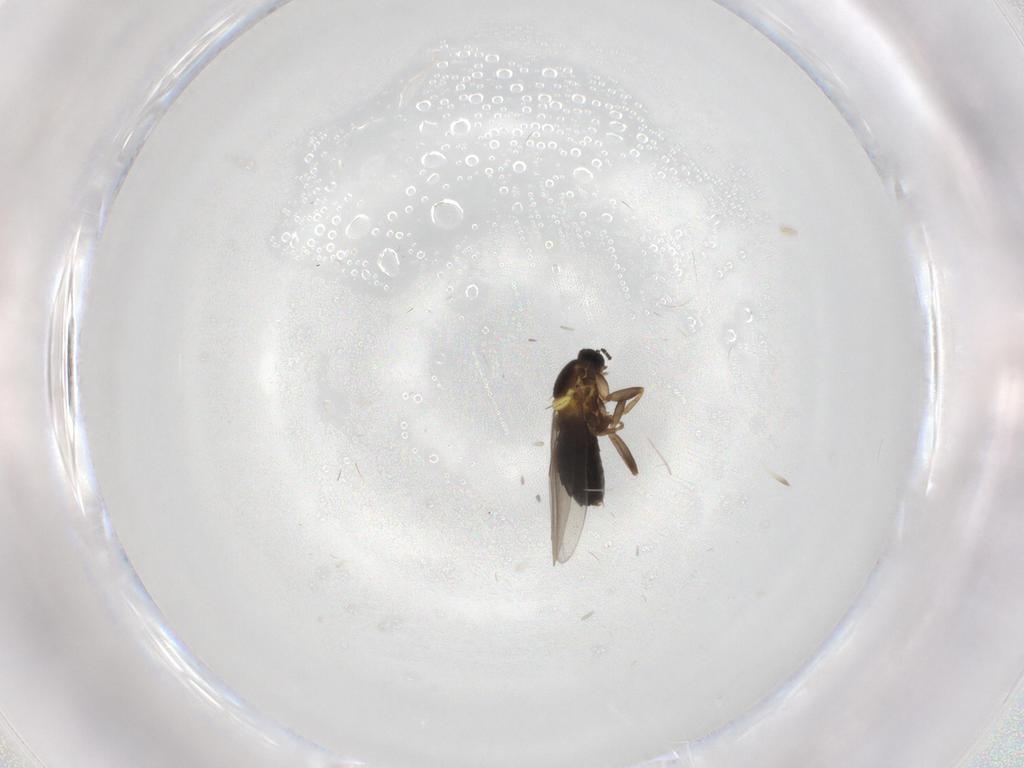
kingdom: Animalia
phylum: Arthropoda
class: Insecta
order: Diptera
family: Scatopsidae
